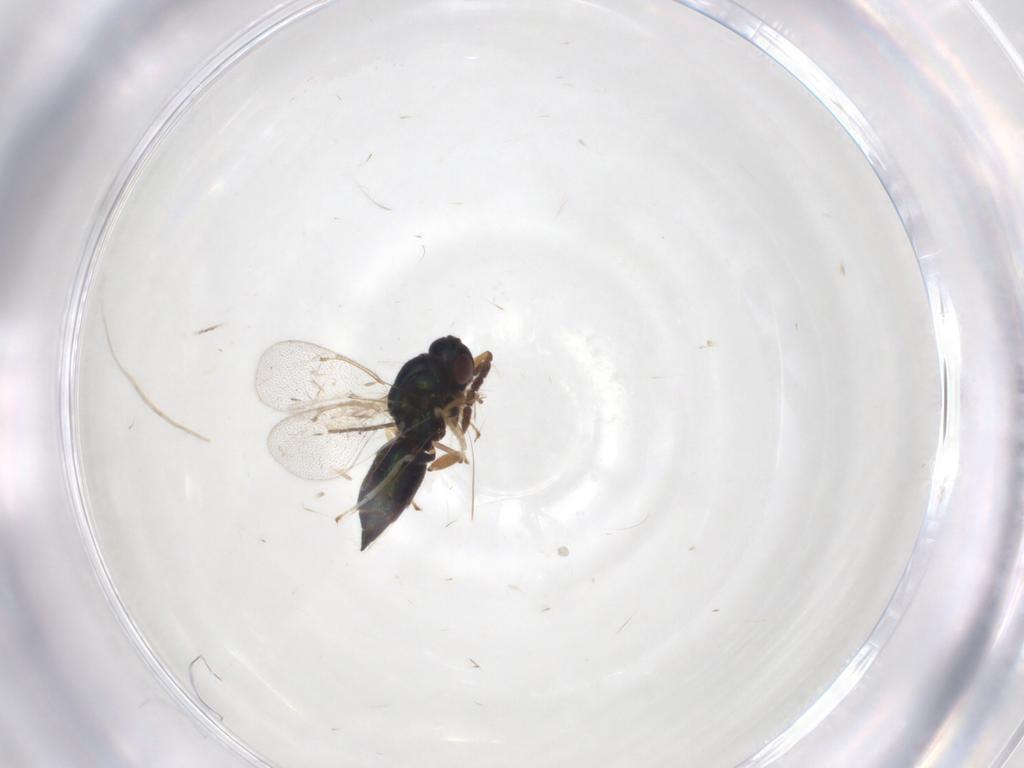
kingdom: Animalia
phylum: Arthropoda
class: Insecta
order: Hymenoptera
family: Eulophidae
